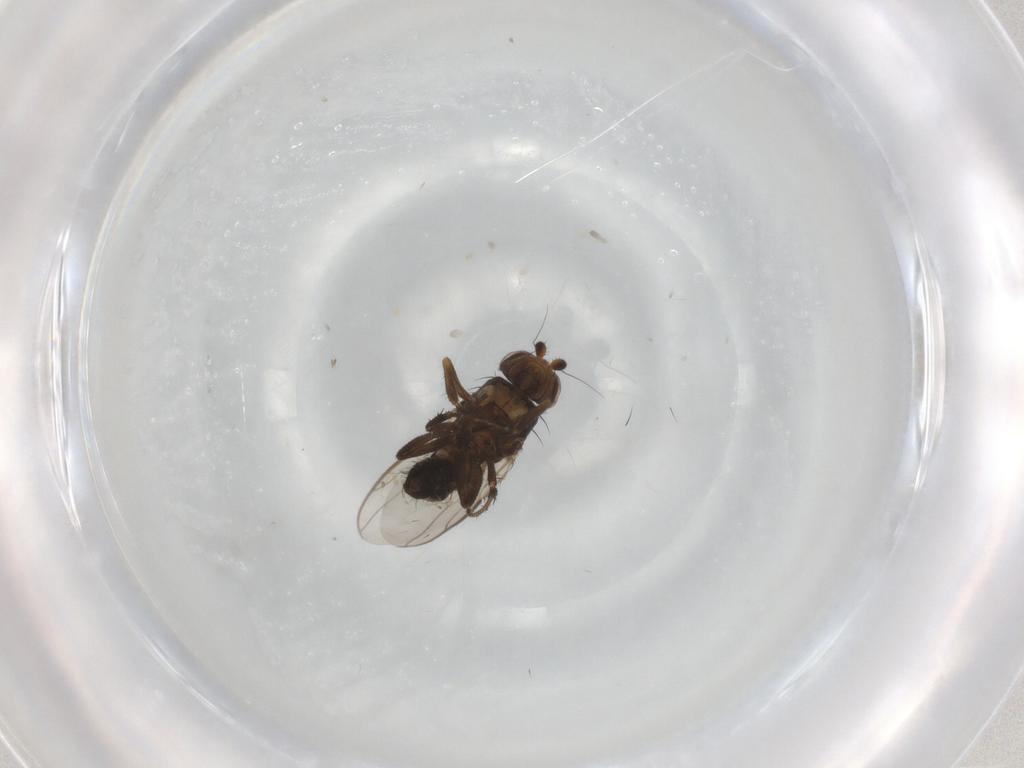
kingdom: Animalia
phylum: Arthropoda
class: Insecta
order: Diptera
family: Sphaeroceridae
